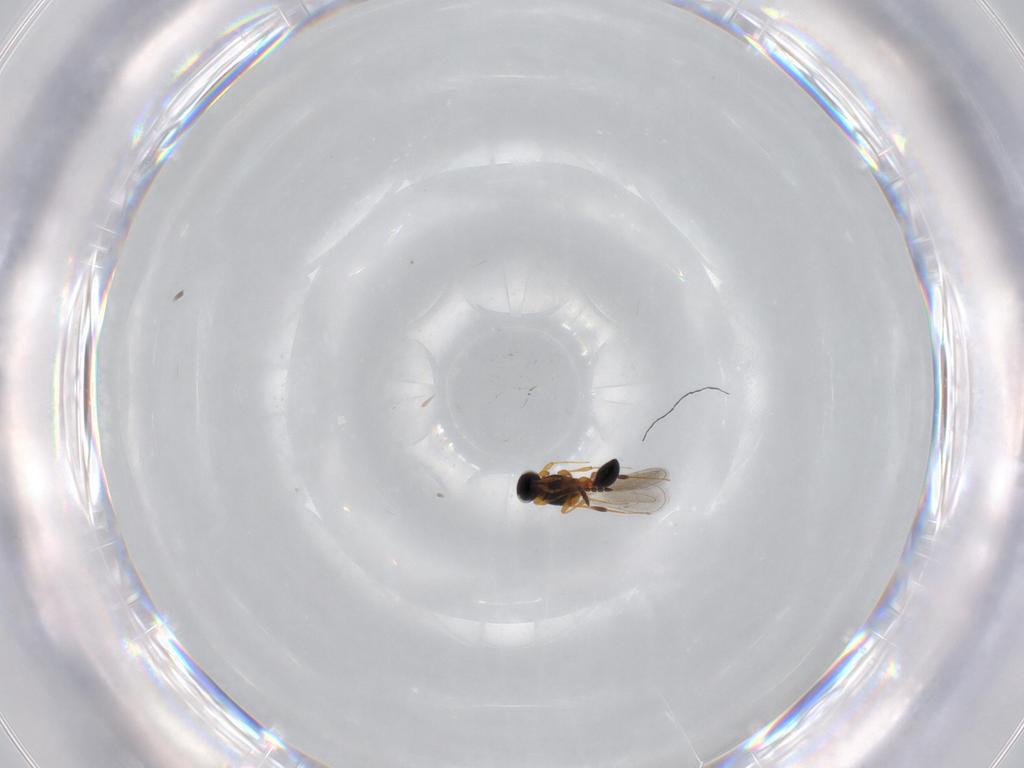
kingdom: Animalia
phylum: Arthropoda
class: Insecta
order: Hymenoptera
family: Platygastridae
